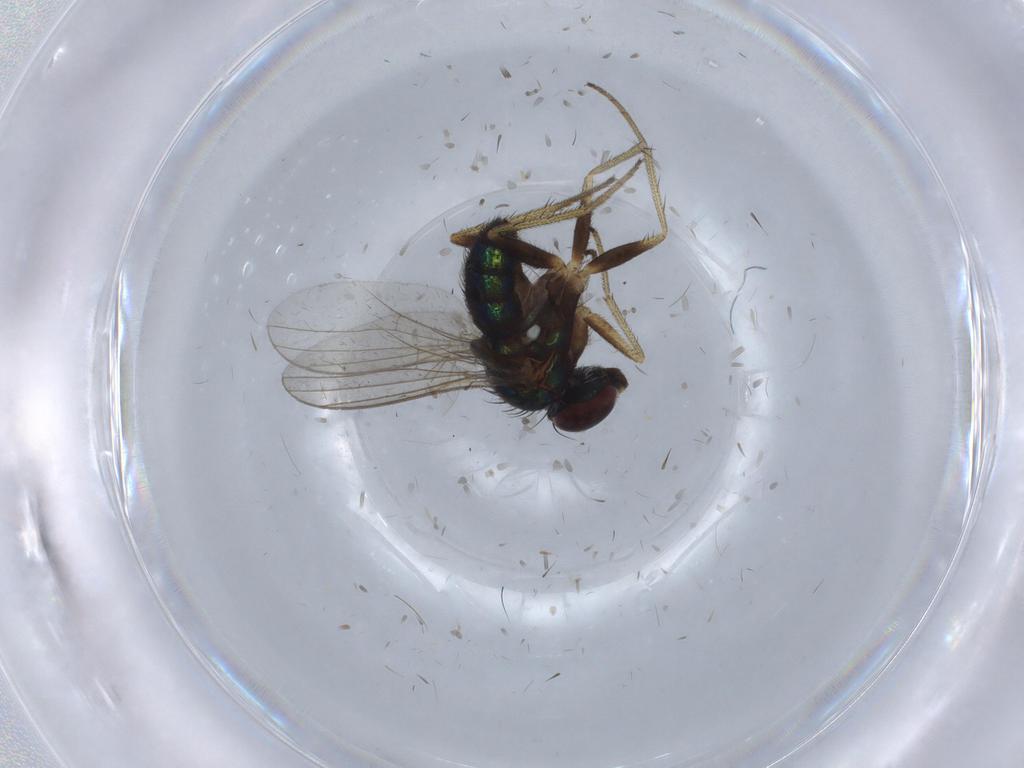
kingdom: Animalia
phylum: Arthropoda
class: Insecta
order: Diptera
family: Drosophilidae
